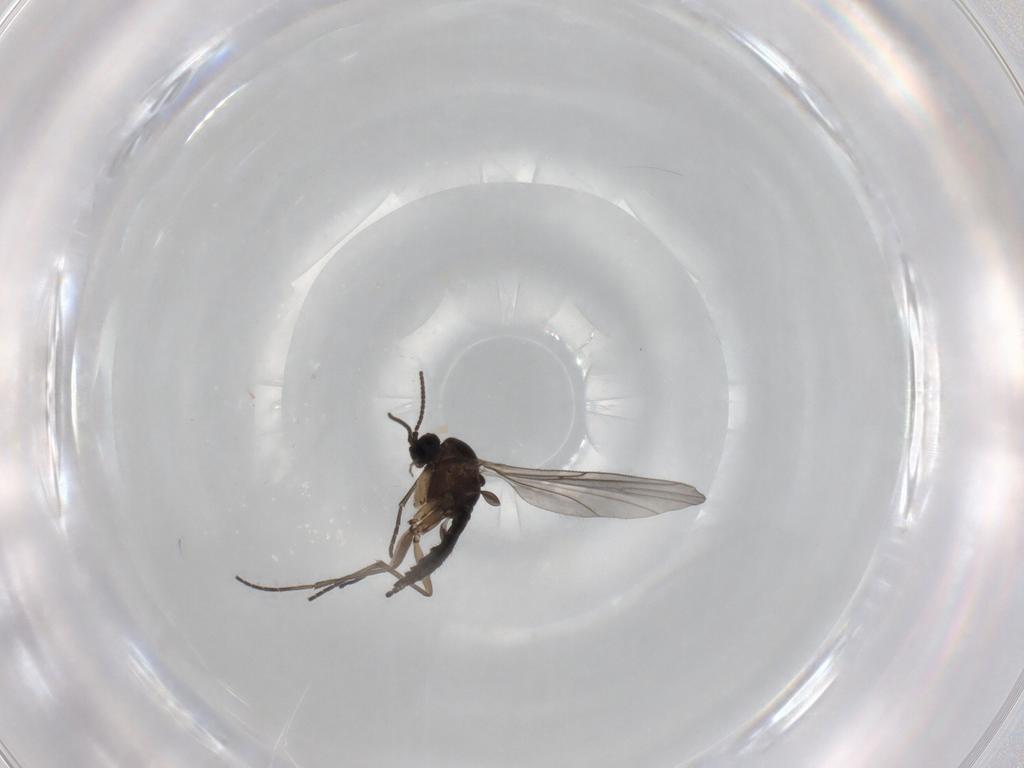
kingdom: Animalia
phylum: Arthropoda
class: Insecta
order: Diptera
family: Sciaridae
